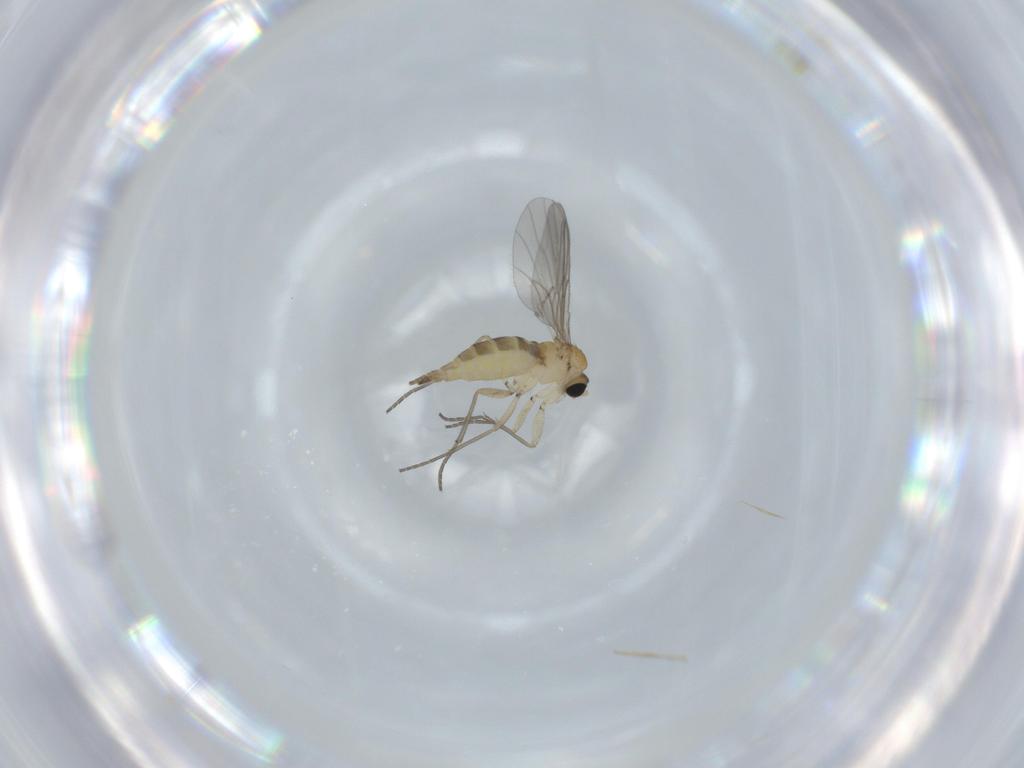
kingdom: Animalia
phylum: Arthropoda
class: Insecta
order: Diptera
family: Sciaridae
